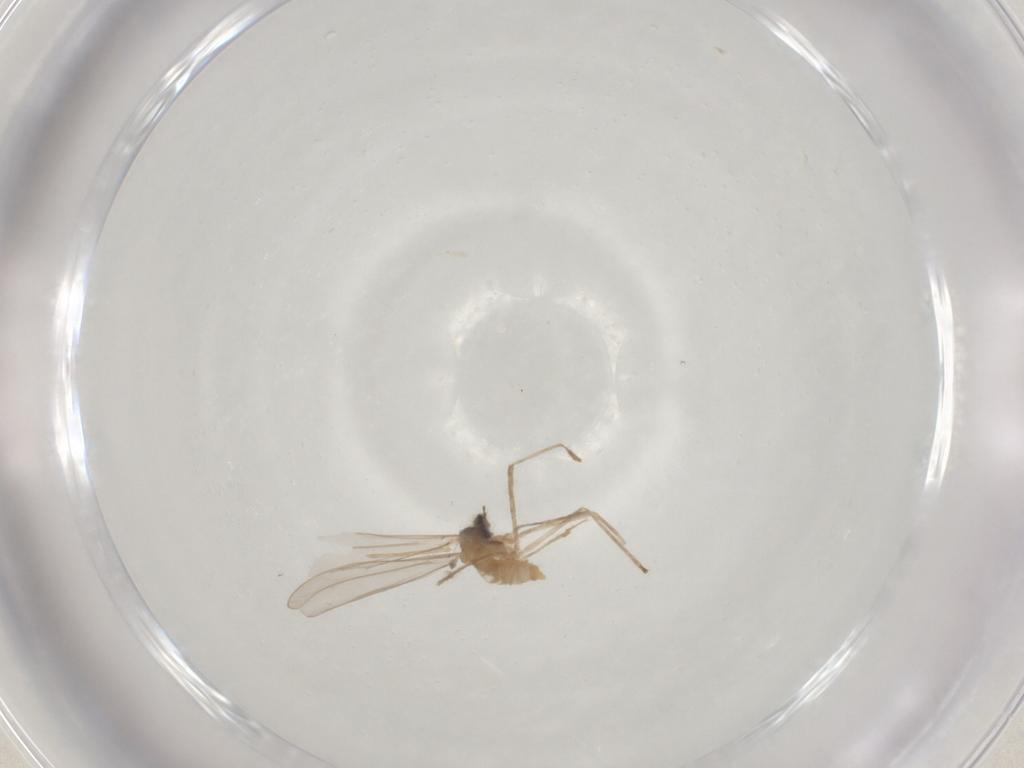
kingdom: Animalia
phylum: Arthropoda
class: Insecta
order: Diptera
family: Cecidomyiidae
